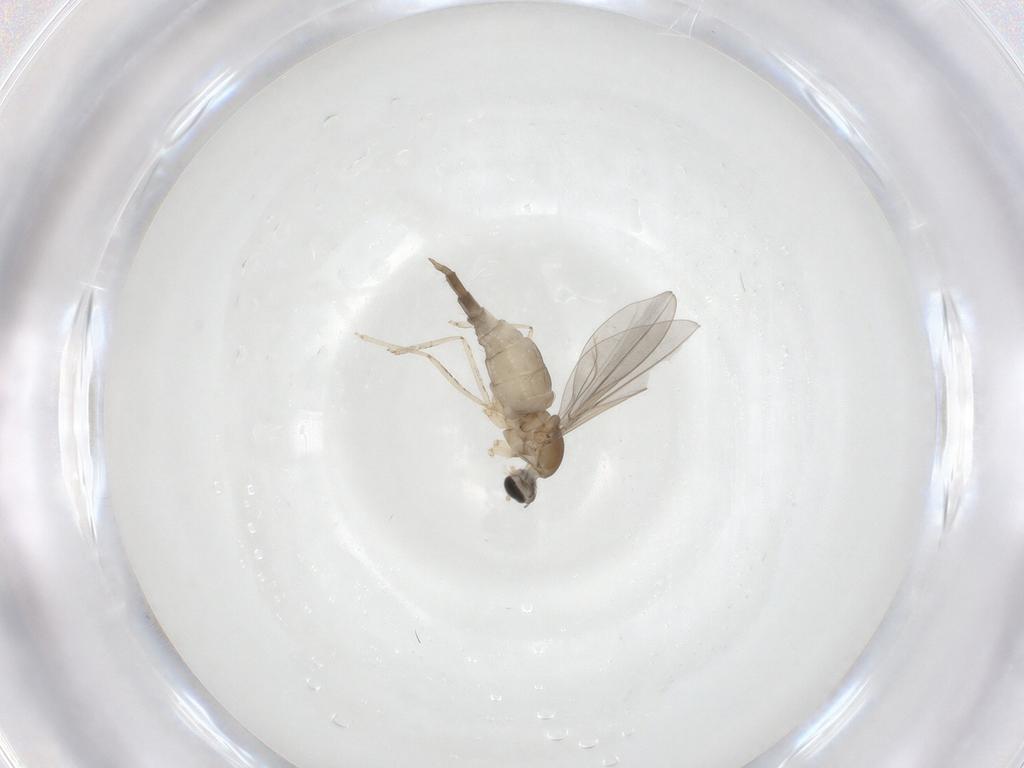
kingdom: Animalia
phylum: Arthropoda
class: Insecta
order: Diptera
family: Cecidomyiidae
